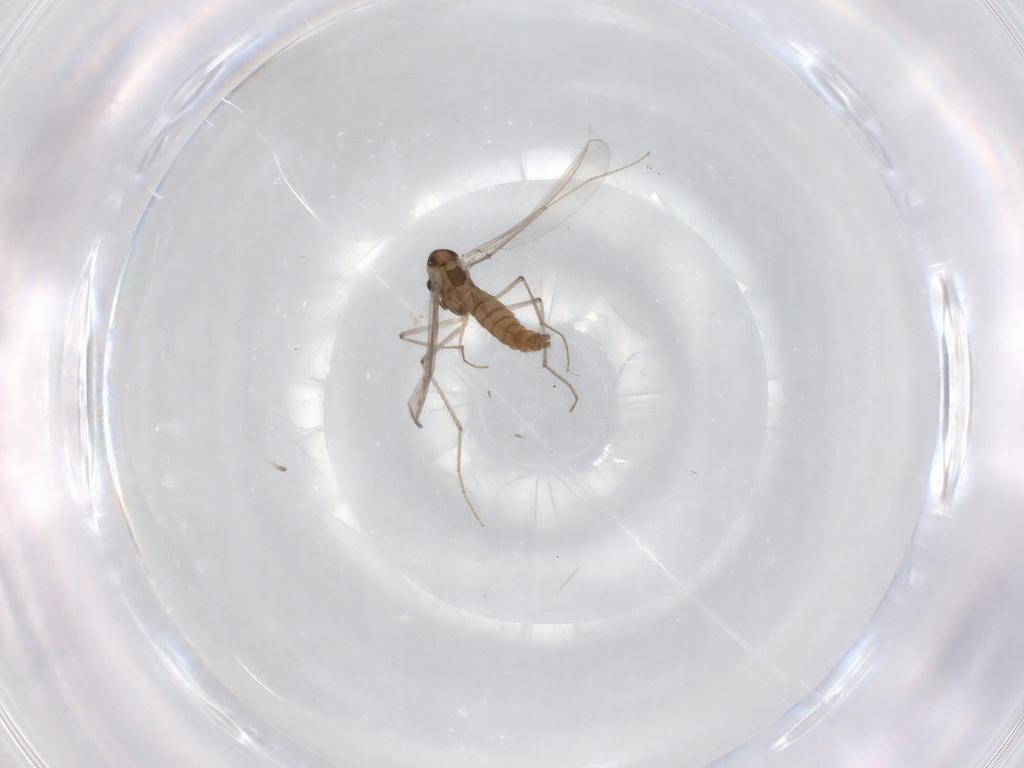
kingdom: Animalia
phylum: Arthropoda
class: Insecta
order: Diptera
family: Chironomidae
